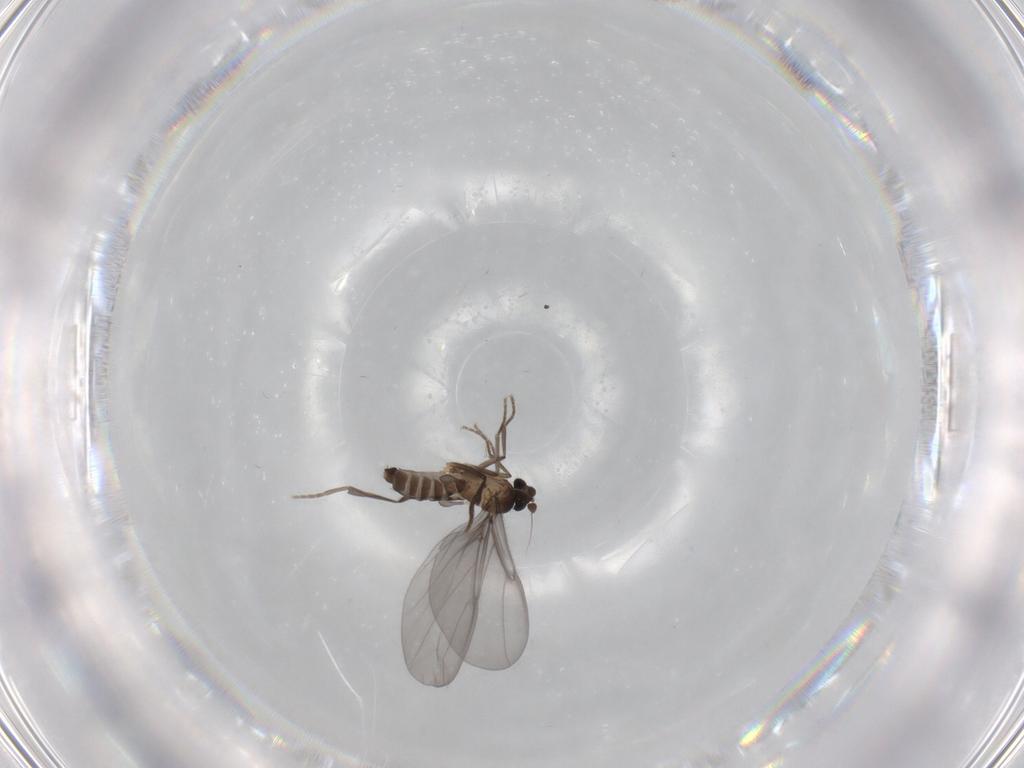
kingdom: Animalia
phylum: Arthropoda
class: Insecta
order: Diptera
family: Phoridae
